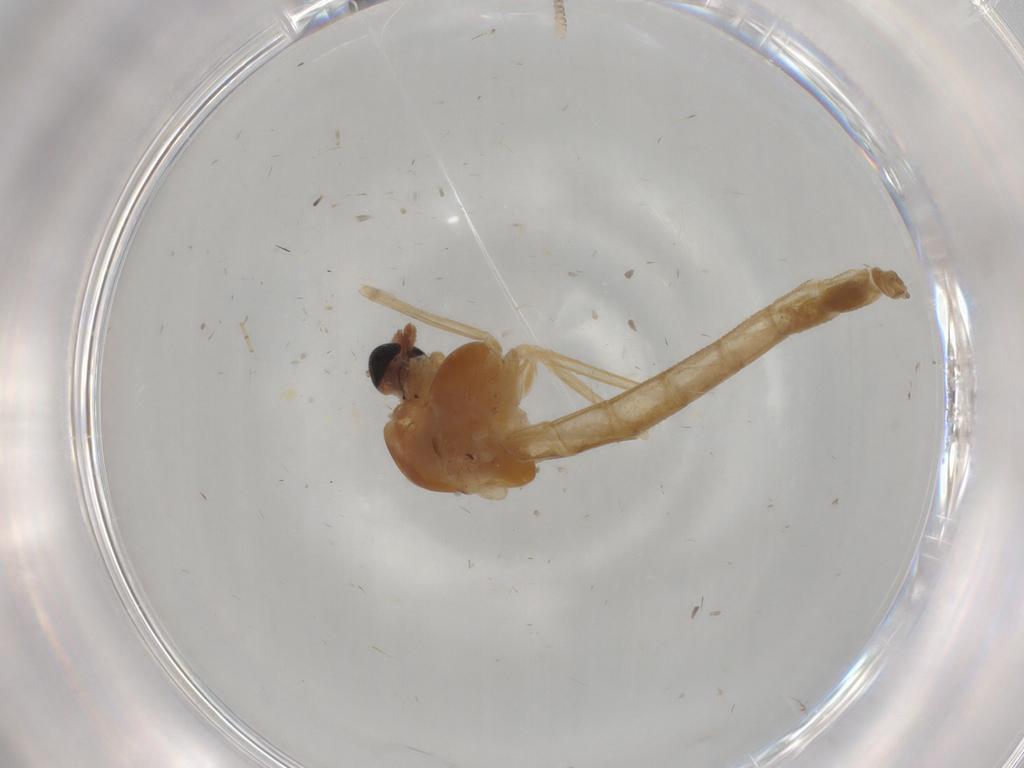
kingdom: Animalia
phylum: Arthropoda
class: Insecta
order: Diptera
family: Chironomidae
